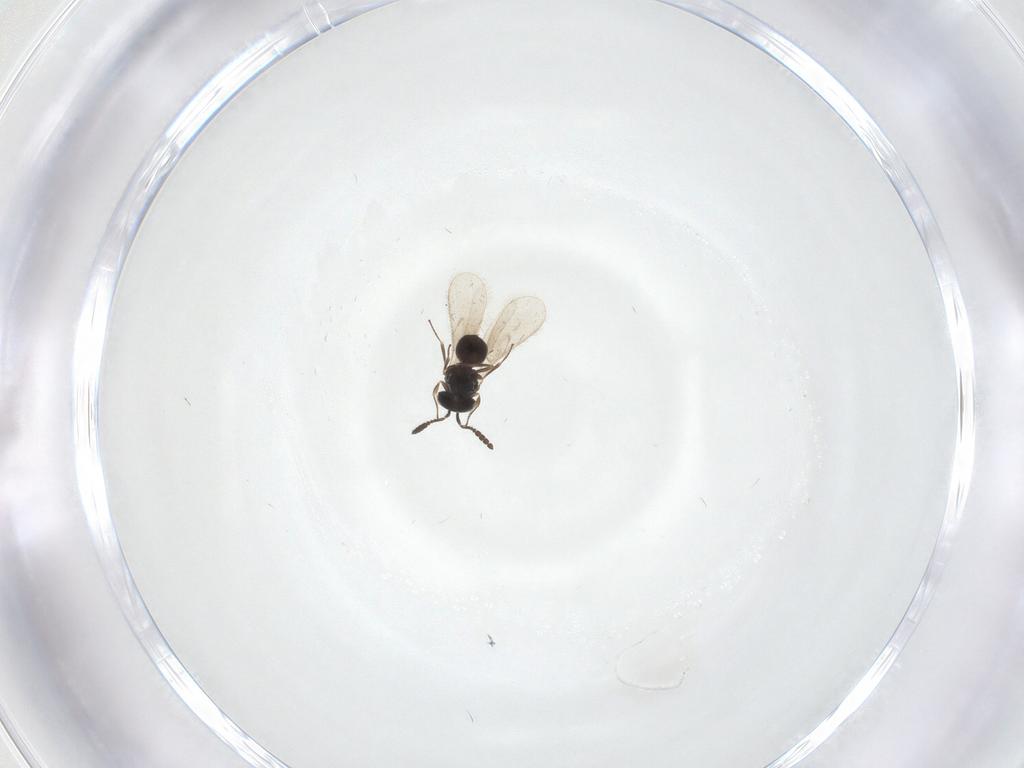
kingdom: Animalia
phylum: Arthropoda
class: Insecta
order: Hymenoptera
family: Scelionidae
